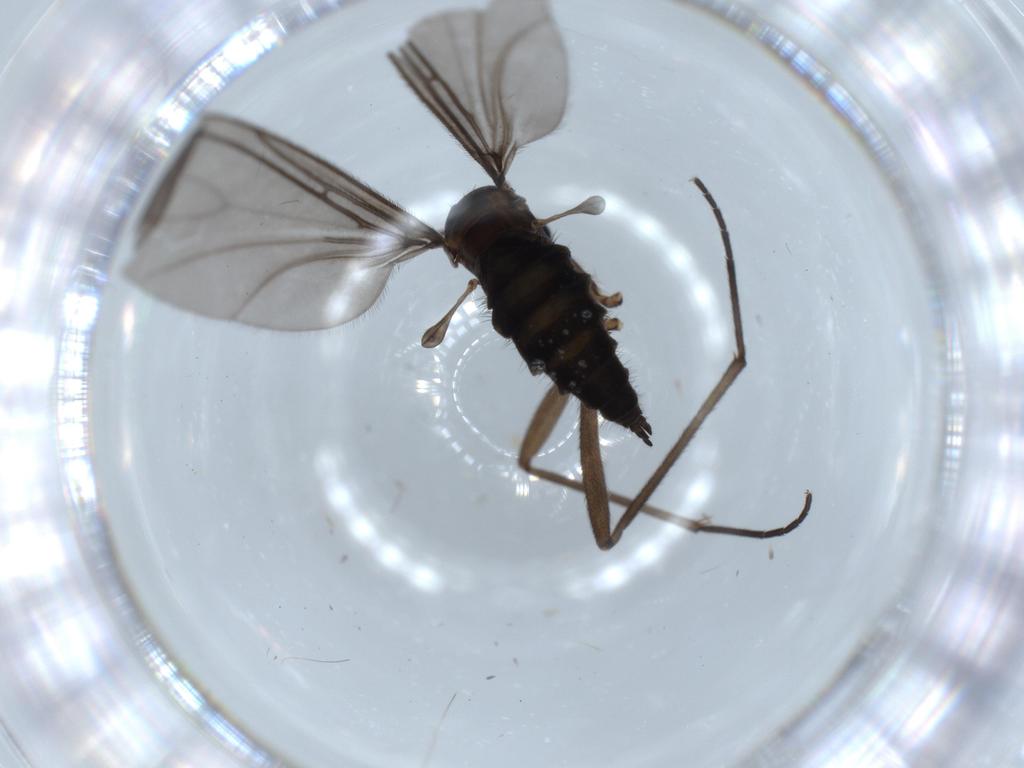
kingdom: Animalia
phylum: Arthropoda
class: Insecta
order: Diptera
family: Sciaridae
